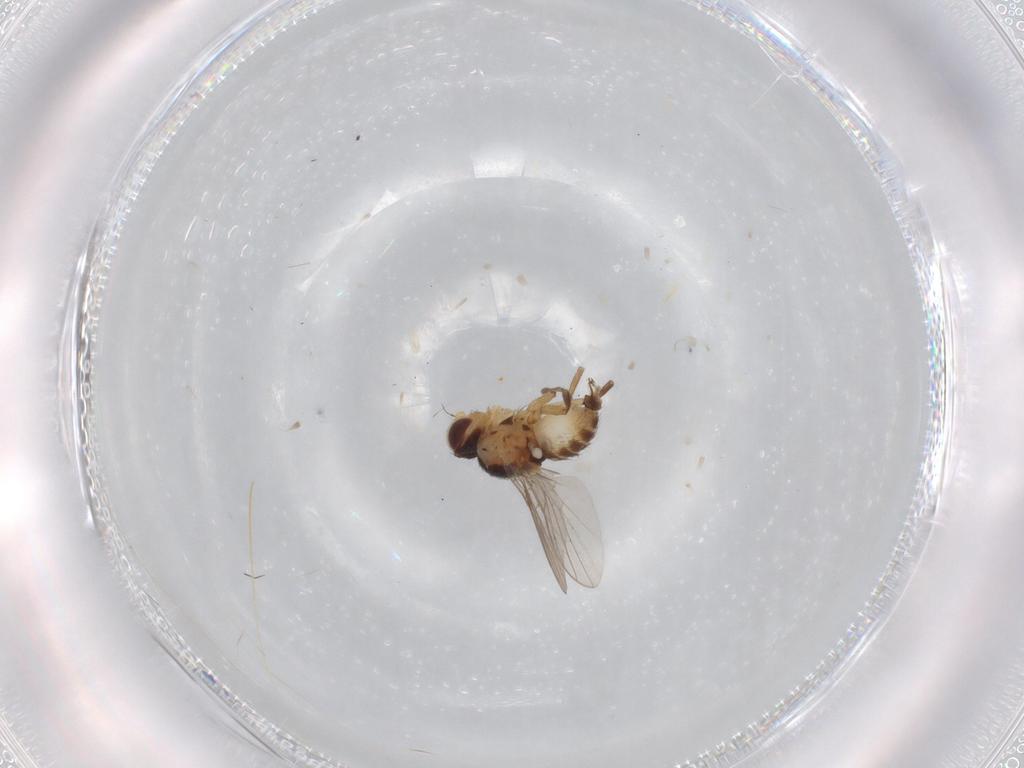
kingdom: Animalia
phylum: Arthropoda
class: Insecta
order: Diptera
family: Agromyzidae
